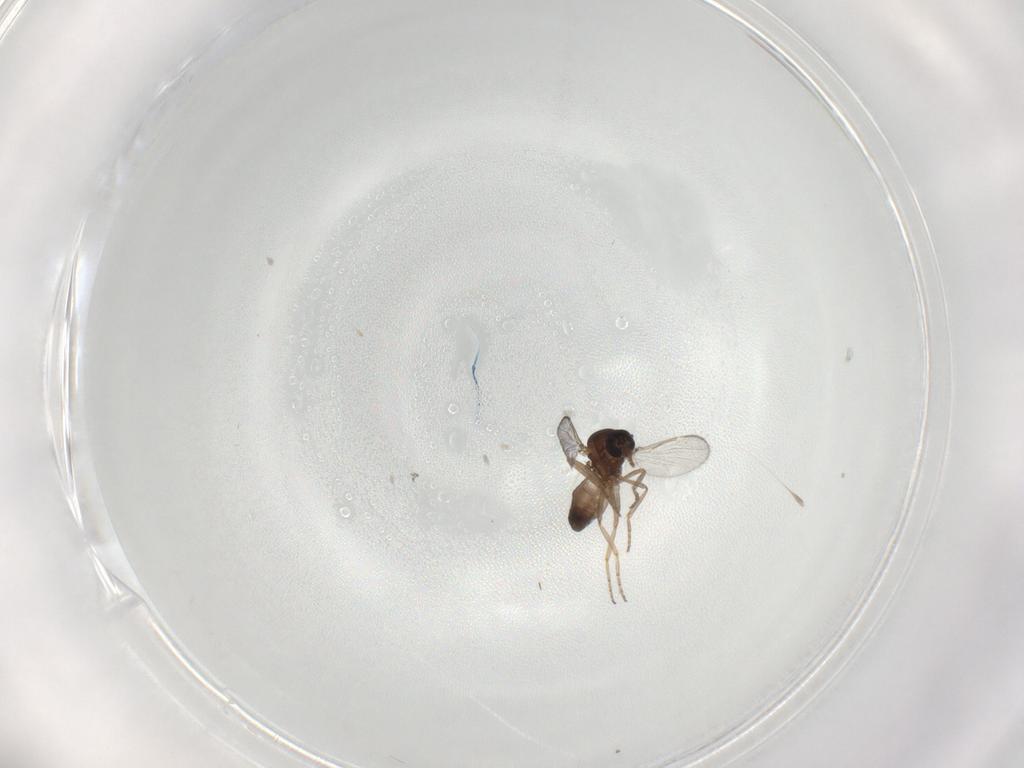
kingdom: Animalia
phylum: Arthropoda
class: Insecta
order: Diptera
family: Ceratopogonidae
